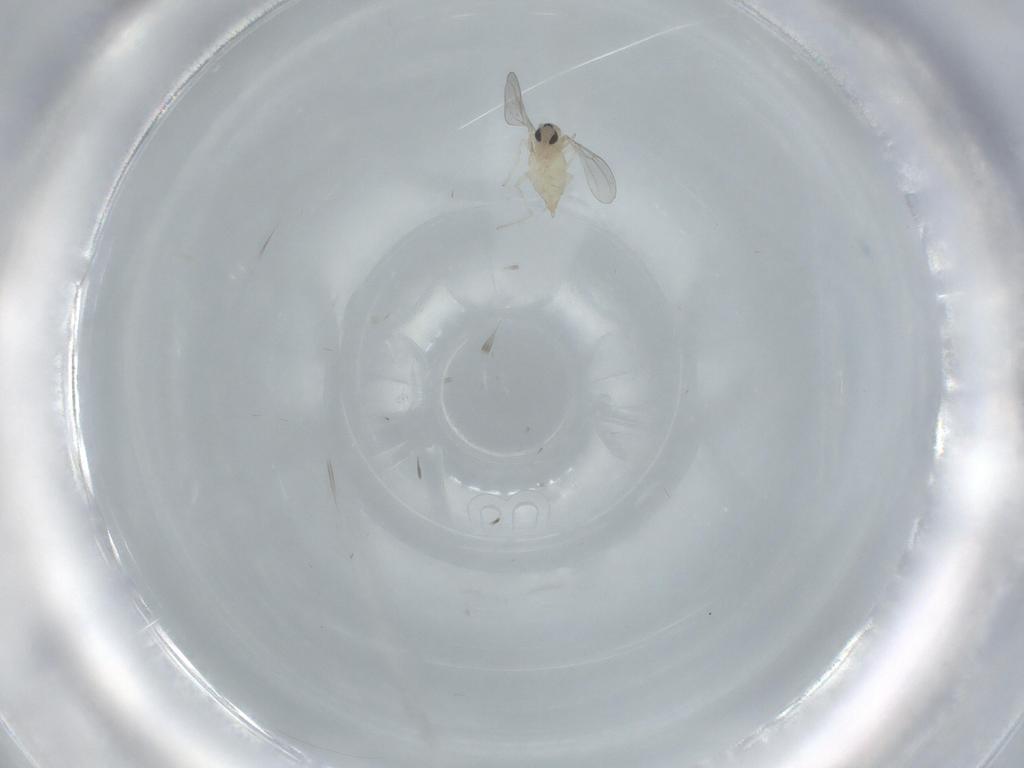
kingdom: Animalia
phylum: Arthropoda
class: Insecta
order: Diptera
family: Cecidomyiidae
